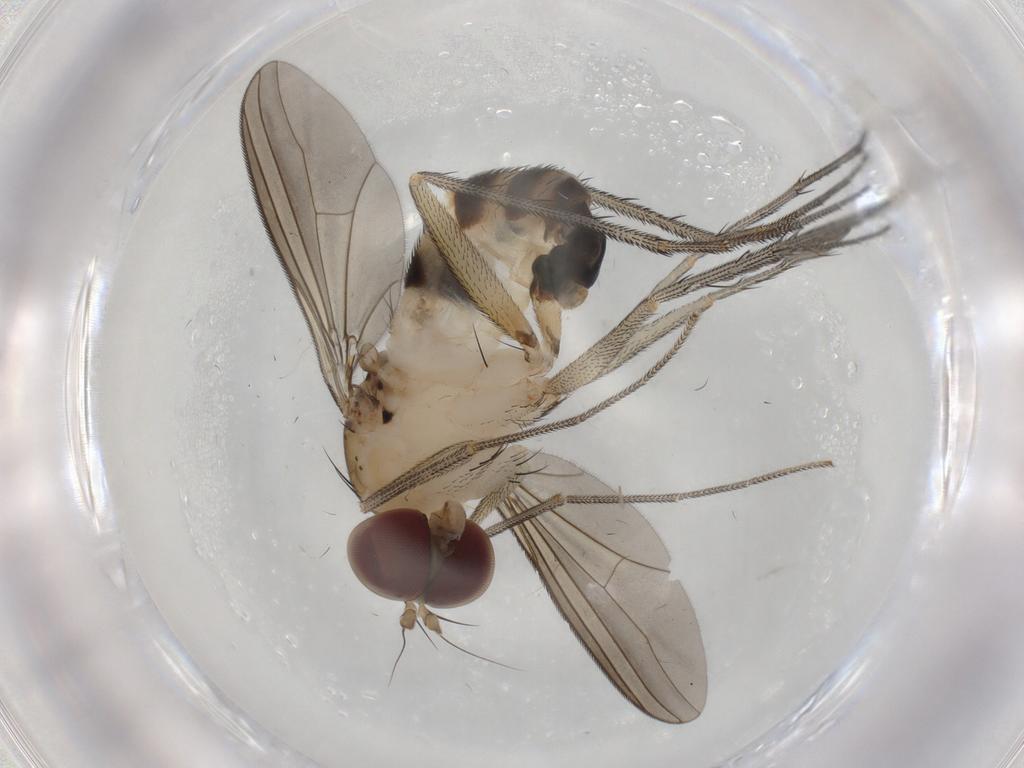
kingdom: Animalia
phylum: Arthropoda
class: Insecta
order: Diptera
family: Dolichopodidae
